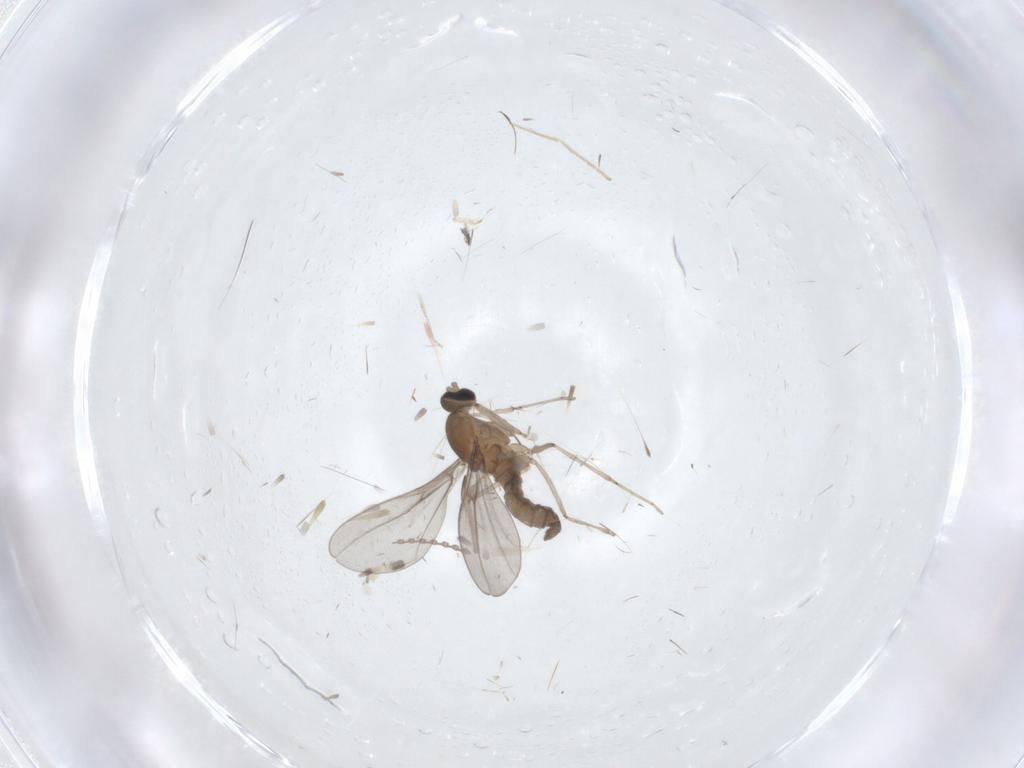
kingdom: Animalia
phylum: Arthropoda
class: Insecta
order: Diptera
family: Chironomidae
